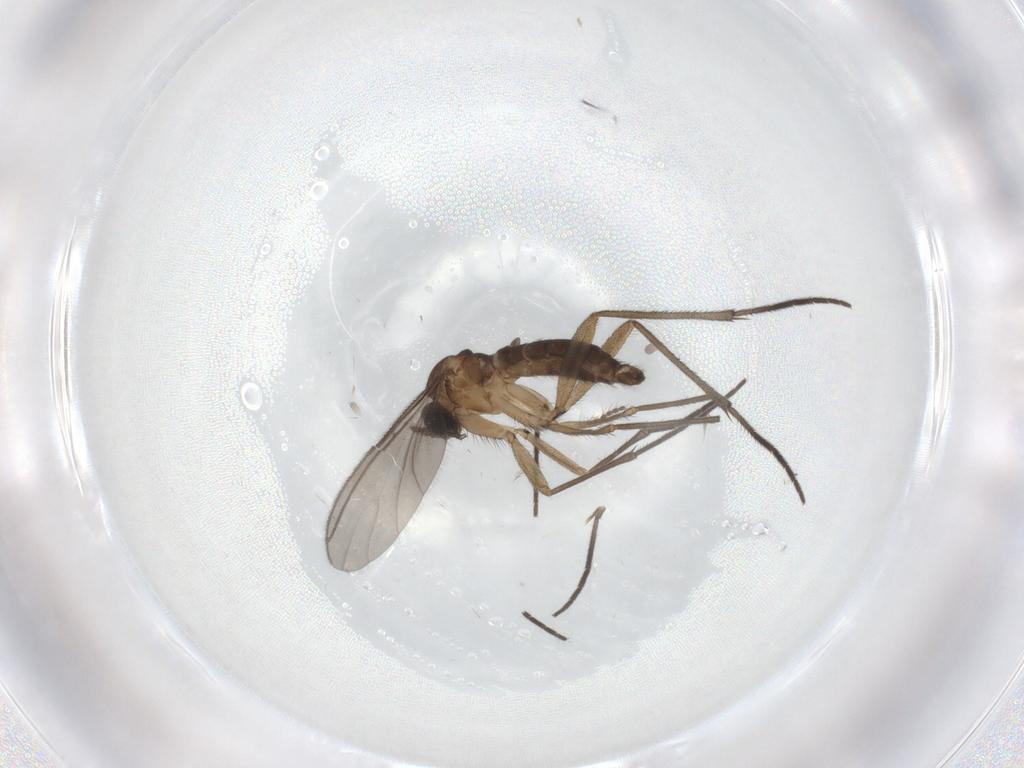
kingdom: Animalia
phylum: Arthropoda
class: Insecta
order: Diptera
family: Sciaridae
